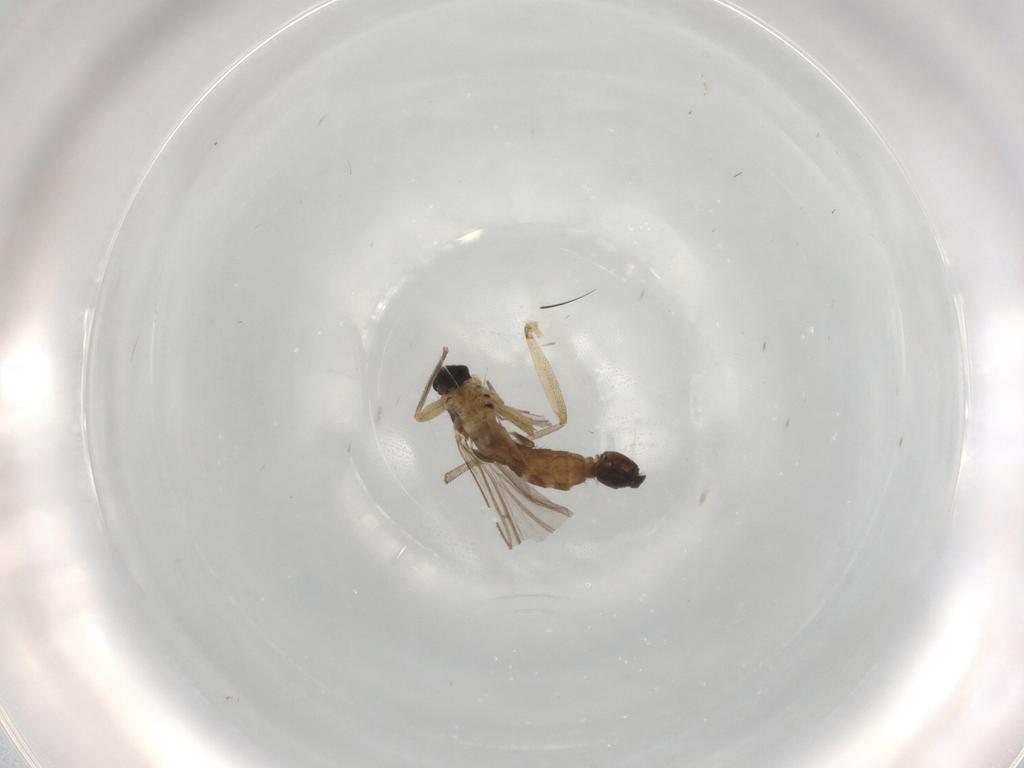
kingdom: Animalia
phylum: Arthropoda
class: Insecta
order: Diptera
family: Sciaridae
